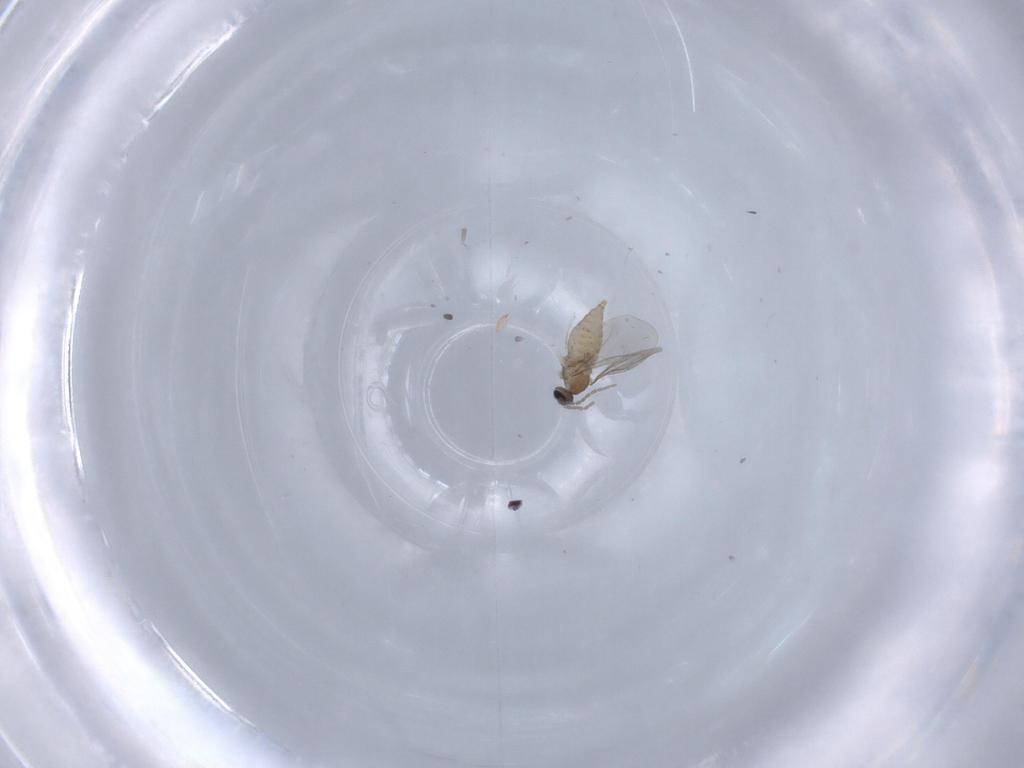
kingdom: Animalia
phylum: Arthropoda
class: Insecta
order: Diptera
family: Cecidomyiidae
